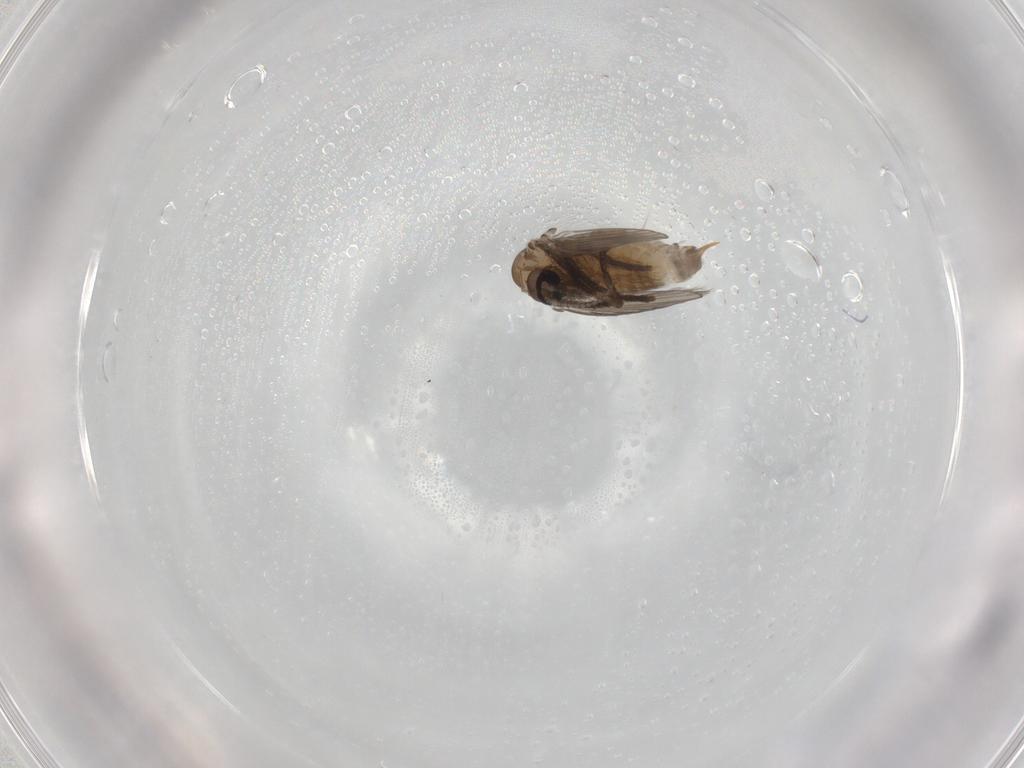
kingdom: Animalia
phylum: Arthropoda
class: Insecta
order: Diptera
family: Psychodidae
